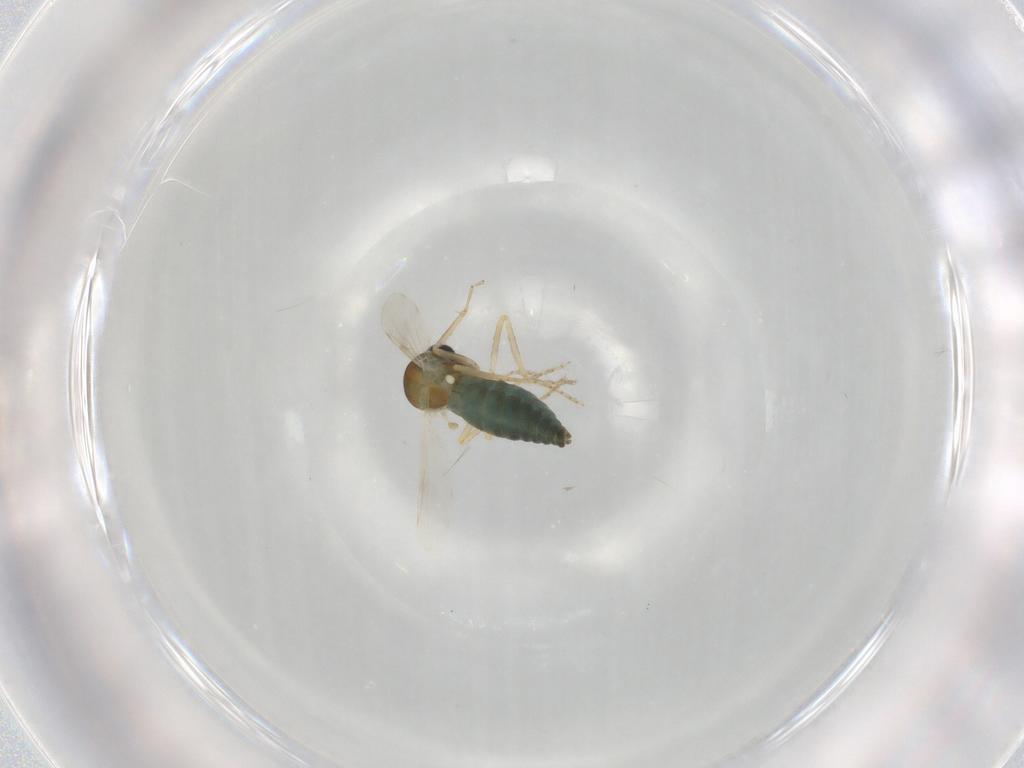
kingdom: Animalia
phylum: Arthropoda
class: Insecta
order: Diptera
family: Ceratopogonidae
